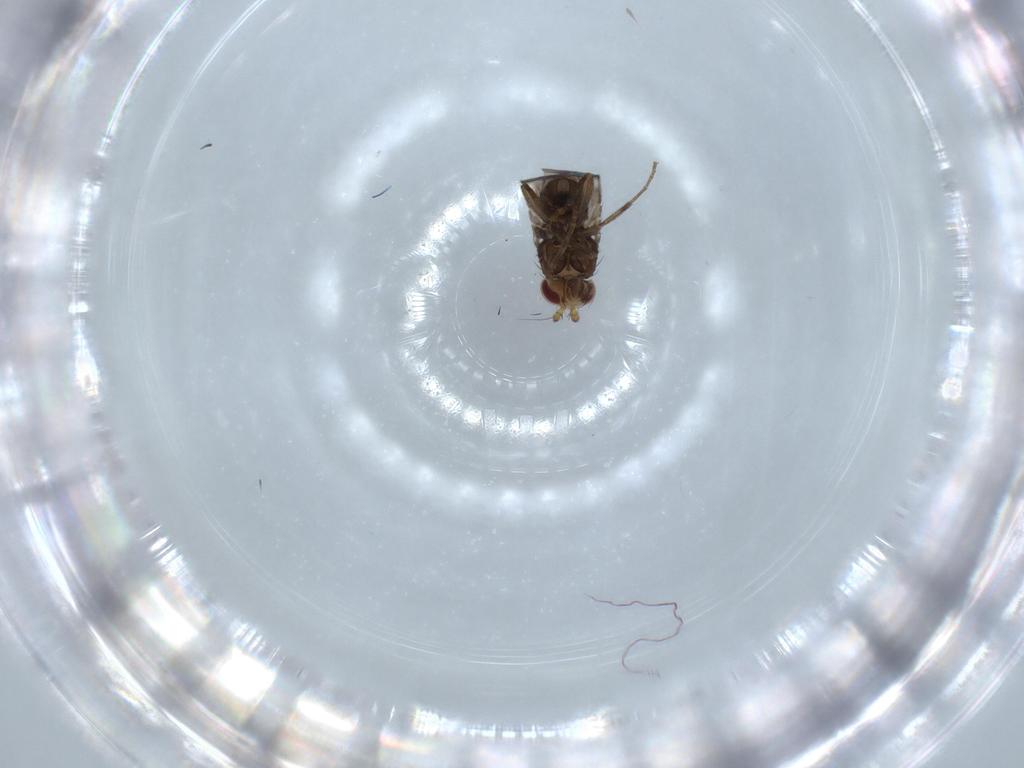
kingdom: Animalia
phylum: Arthropoda
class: Insecta
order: Diptera
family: Sphaeroceridae
